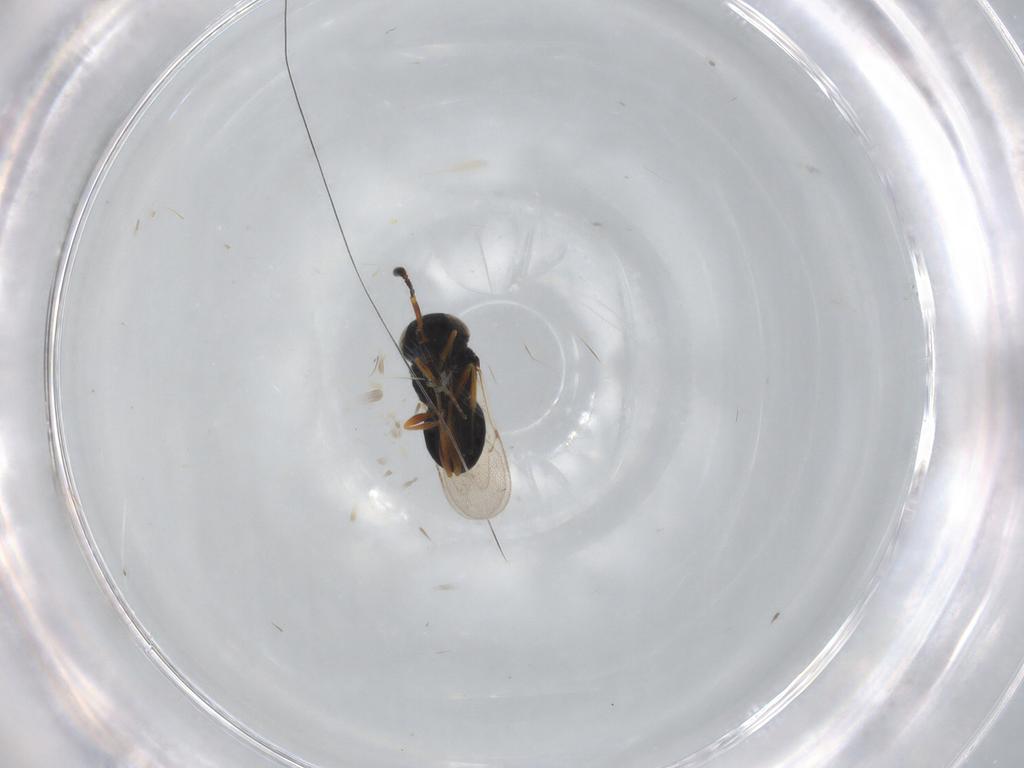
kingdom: Animalia
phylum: Arthropoda
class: Insecta
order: Hymenoptera
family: Scelionidae
